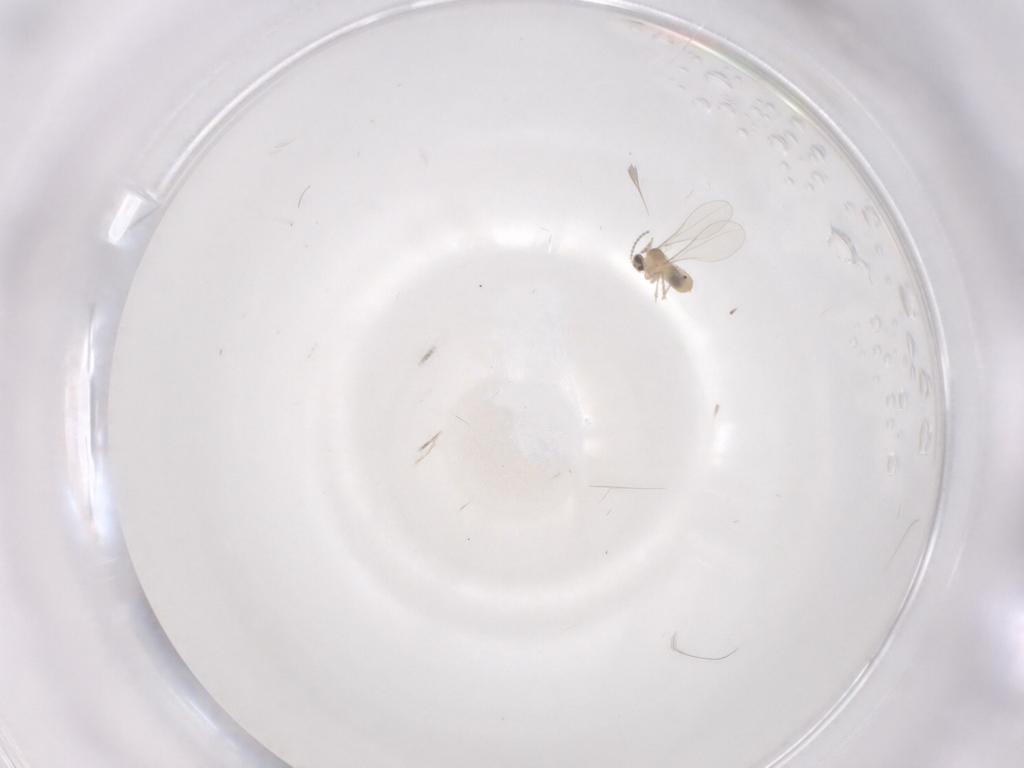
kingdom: Animalia
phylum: Arthropoda
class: Insecta
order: Diptera
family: Cecidomyiidae
